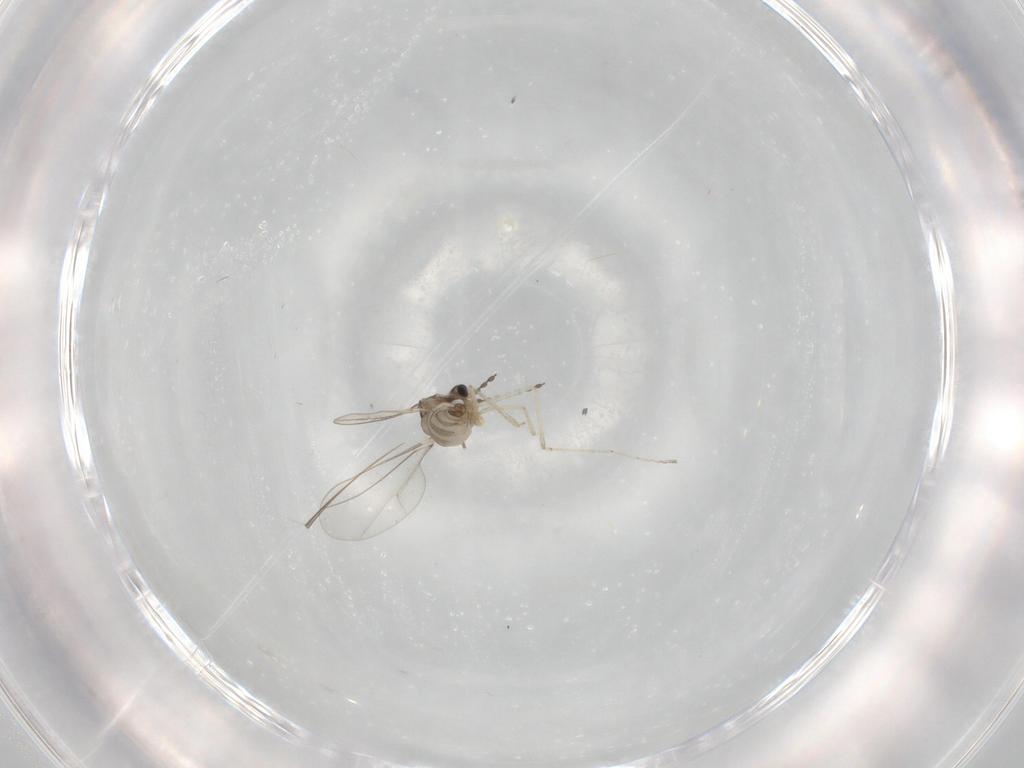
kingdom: Animalia
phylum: Arthropoda
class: Insecta
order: Diptera
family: Cecidomyiidae
